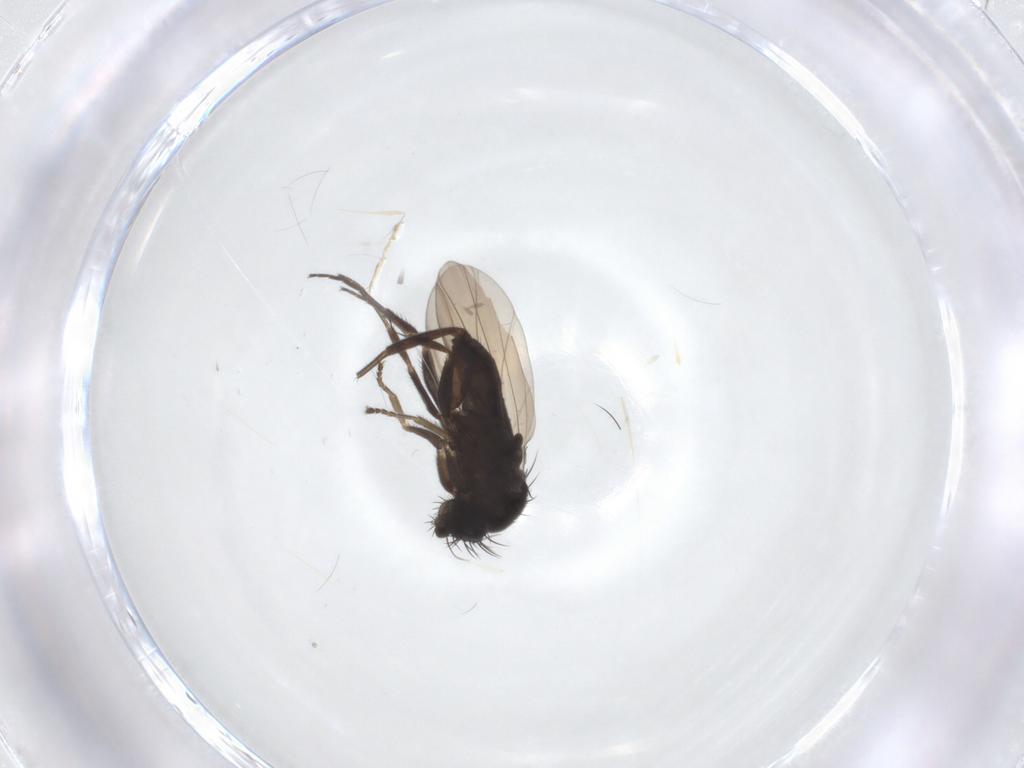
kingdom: Animalia
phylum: Arthropoda
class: Insecta
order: Diptera
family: Phoridae
